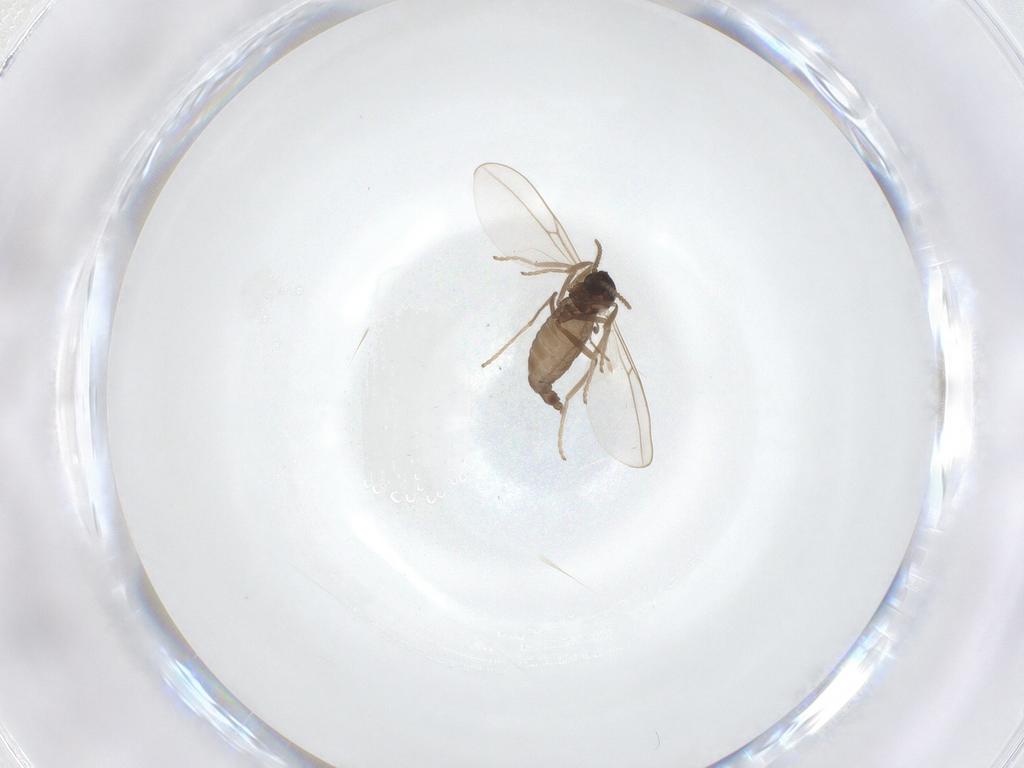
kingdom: Animalia
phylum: Arthropoda
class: Insecta
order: Diptera
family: Cecidomyiidae
